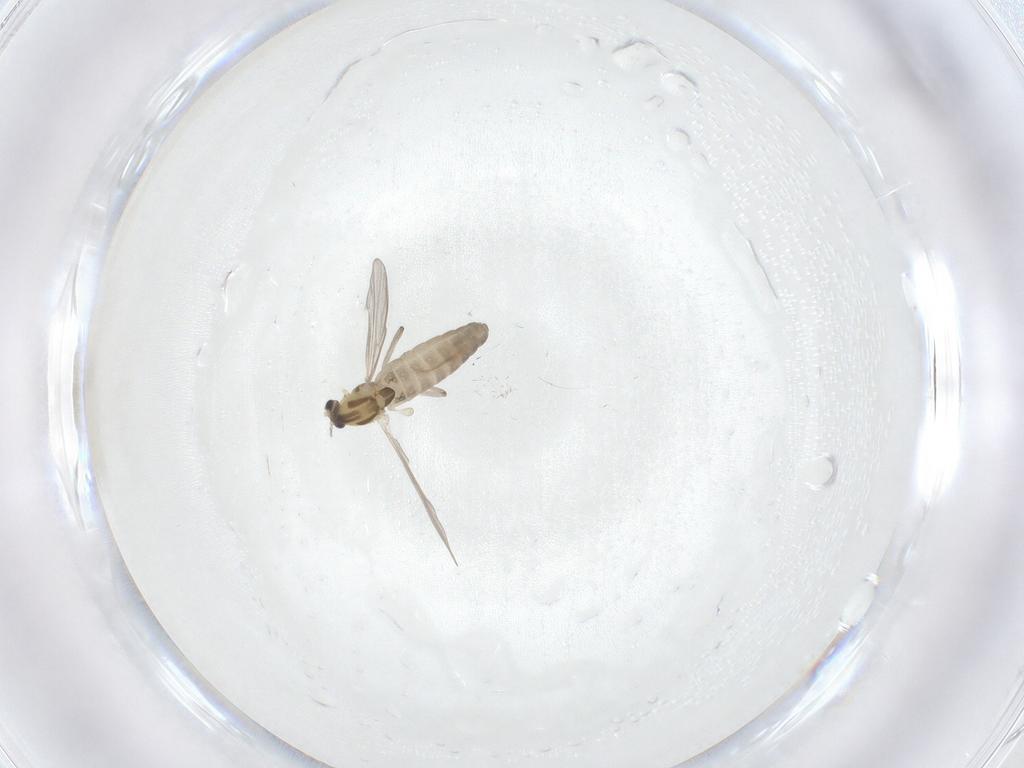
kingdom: Animalia
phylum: Arthropoda
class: Insecta
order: Diptera
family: Chironomidae
